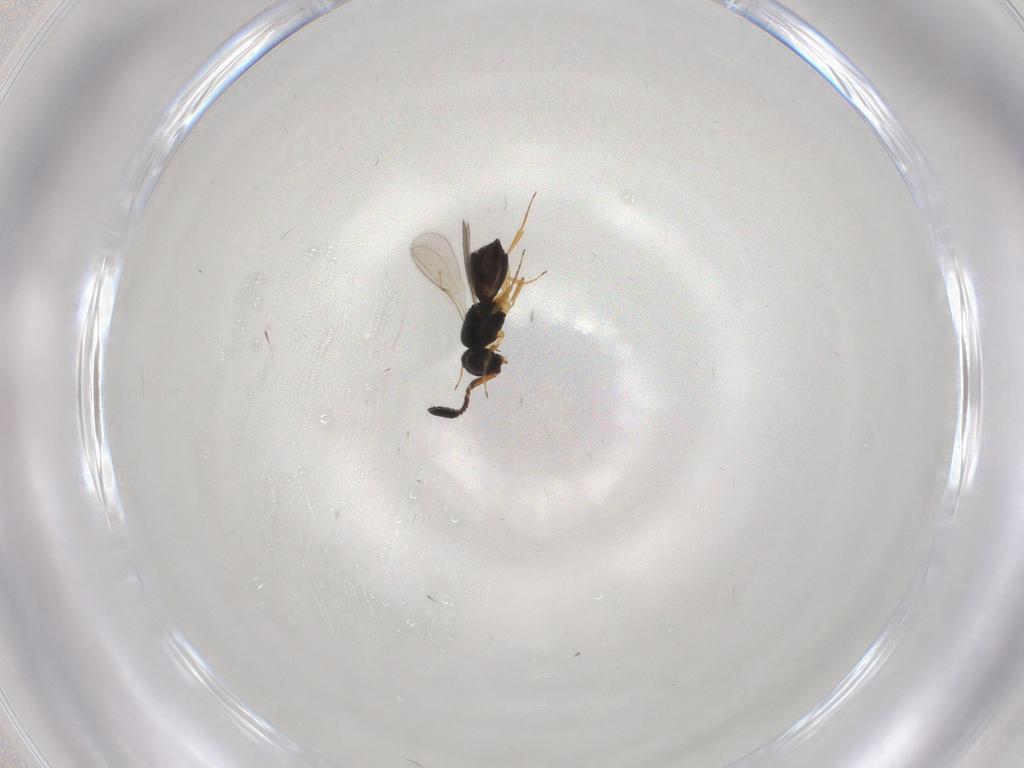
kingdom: Animalia
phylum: Arthropoda
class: Insecta
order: Hymenoptera
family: Scelionidae
